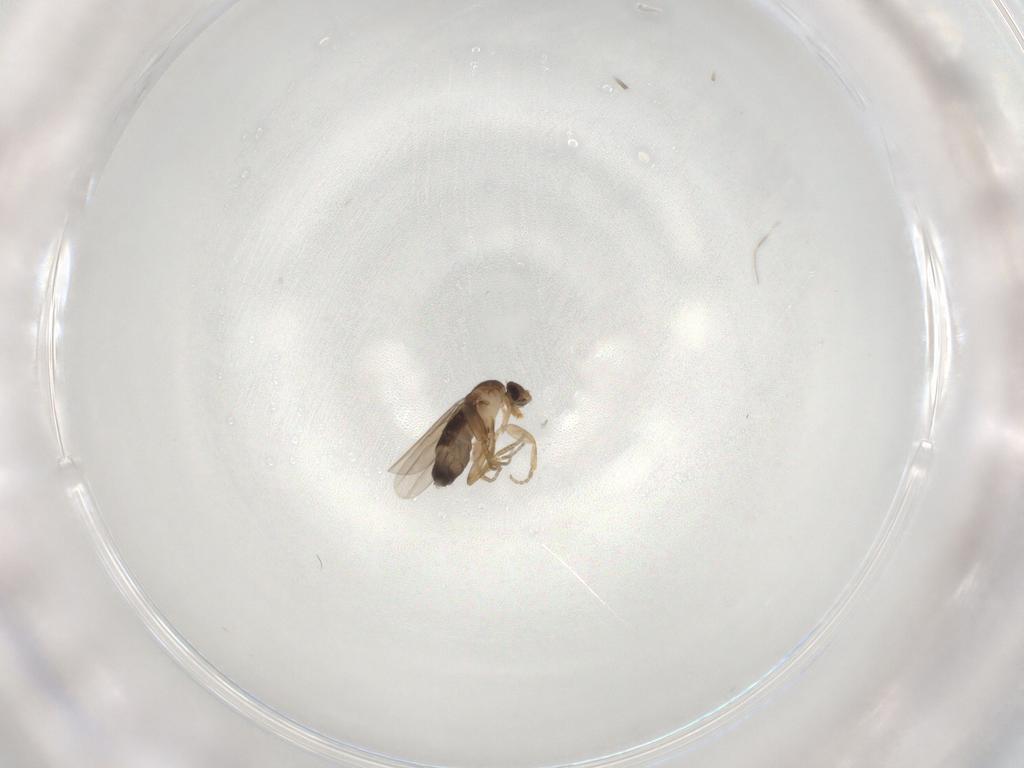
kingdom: Animalia
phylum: Arthropoda
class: Insecta
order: Diptera
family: Phoridae
